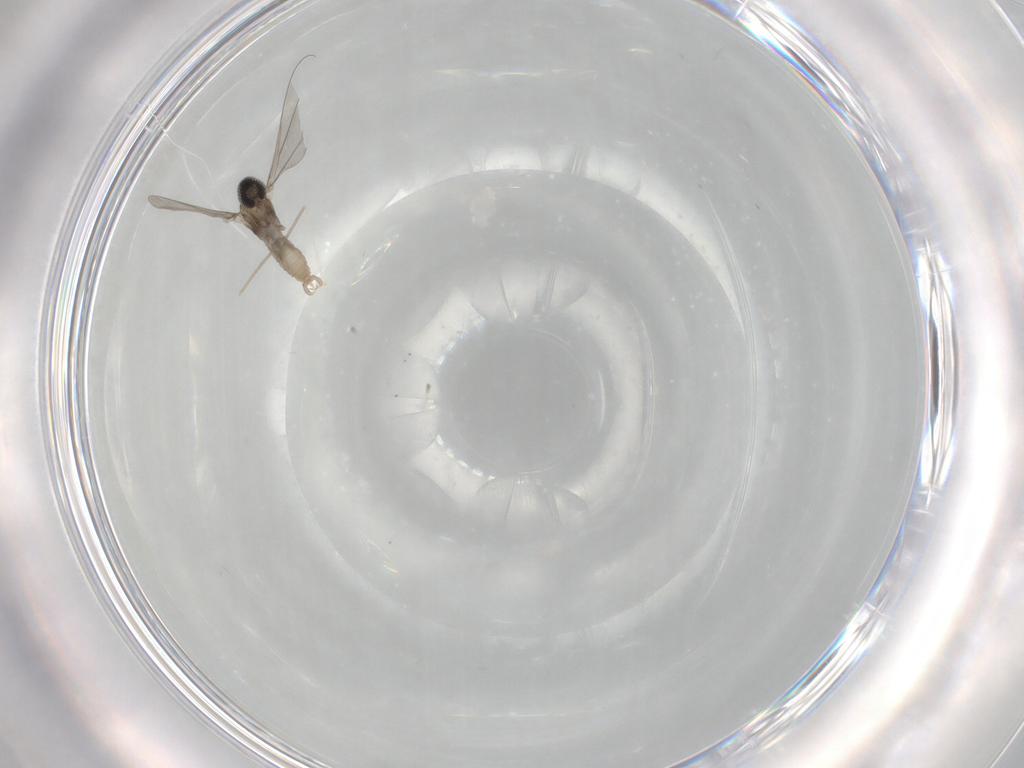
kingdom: Animalia
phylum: Arthropoda
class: Insecta
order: Diptera
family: Cecidomyiidae
